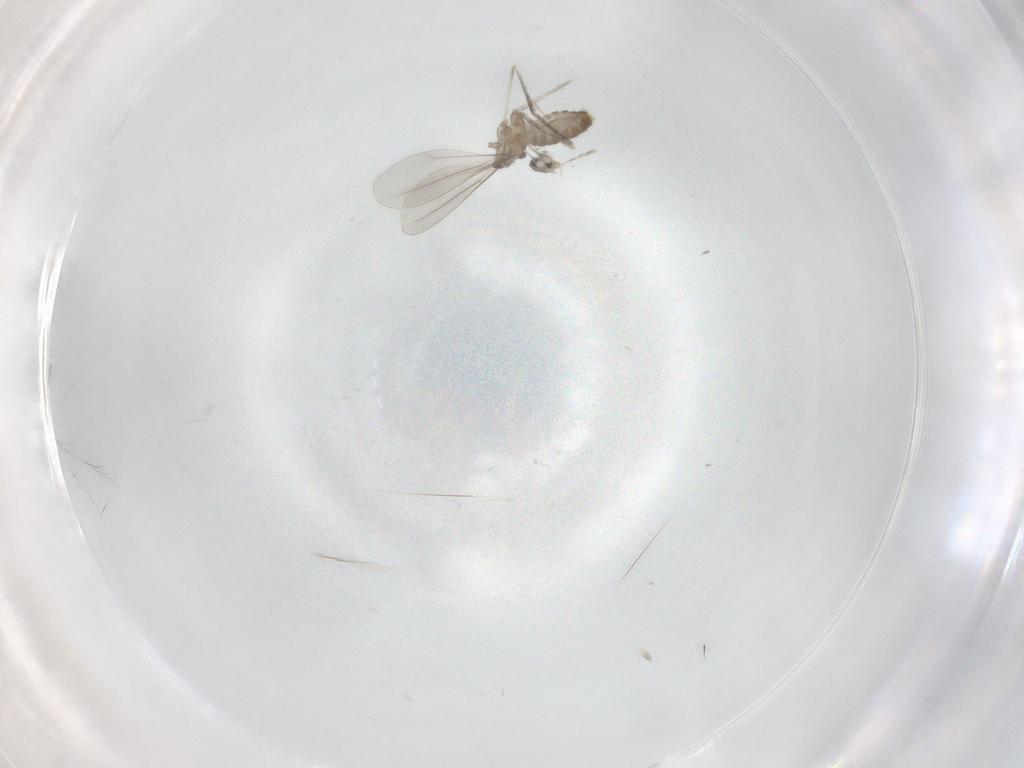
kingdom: Animalia
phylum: Arthropoda
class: Insecta
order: Diptera
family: Cecidomyiidae
